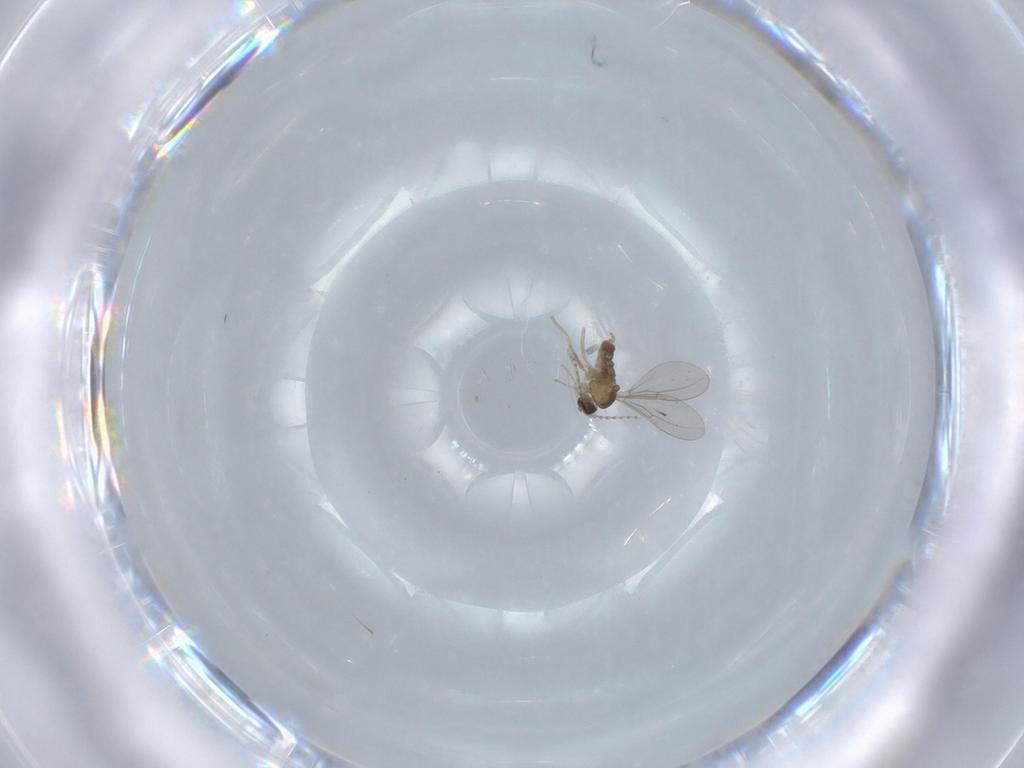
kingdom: Animalia
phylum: Arthropoda
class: Insecta
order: Diptera
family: Cecidomyiidae
